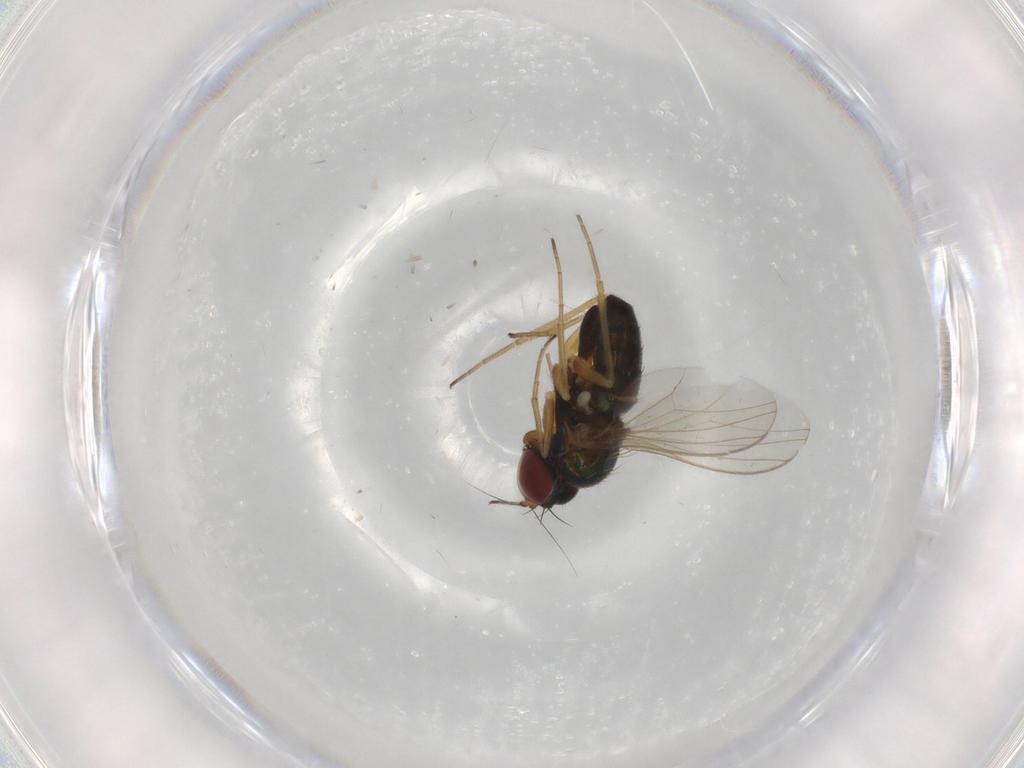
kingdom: Animalia
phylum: Arthropoda
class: Insecta
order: Diptera
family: Dolichopodidae
